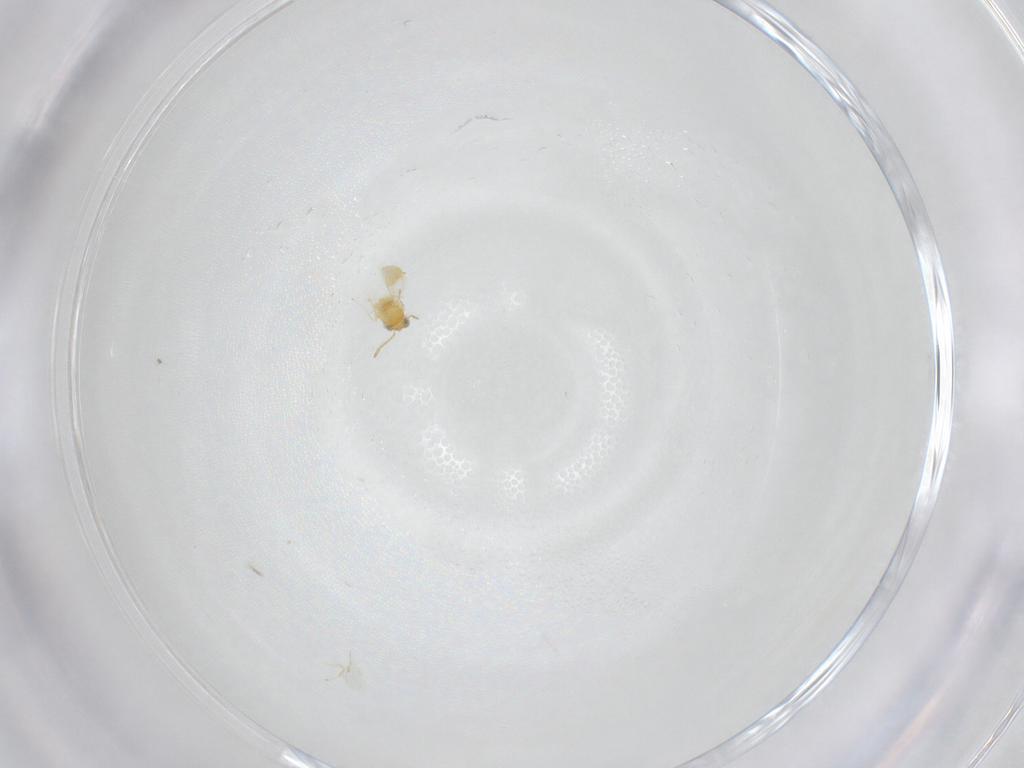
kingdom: Animalia
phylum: Arthropoda
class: Insecta
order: Hymenoptera
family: Aphelinidae
